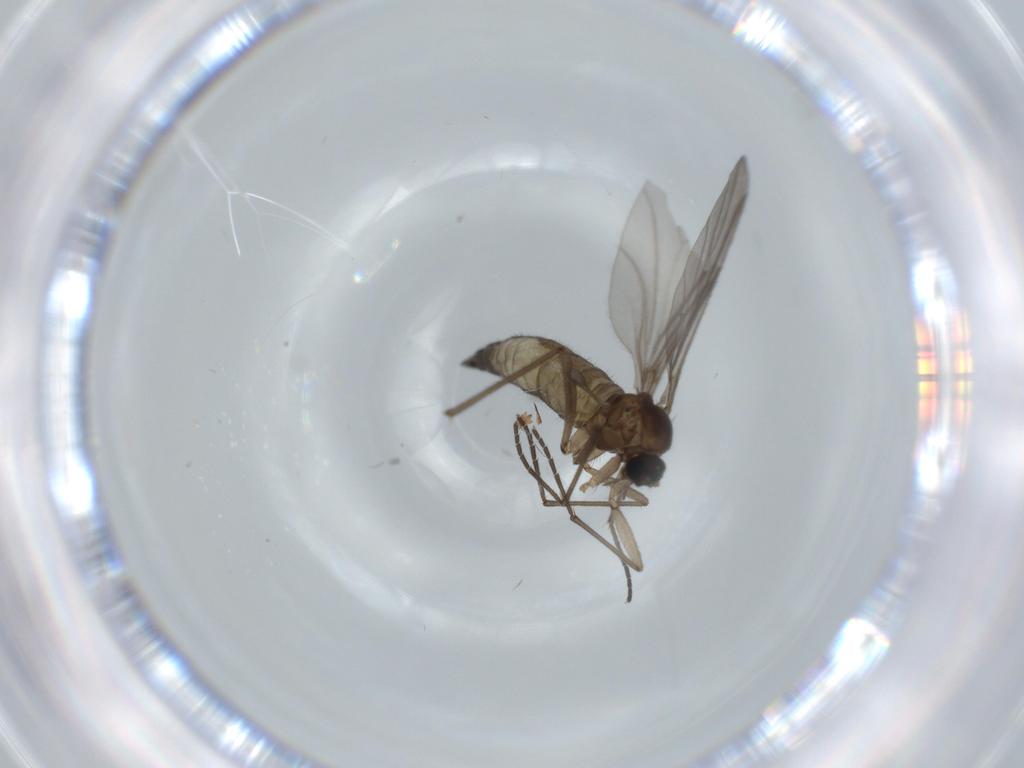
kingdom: Animalia
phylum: Arthropoda
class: Insecta
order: Diptera
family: Sciaridae
